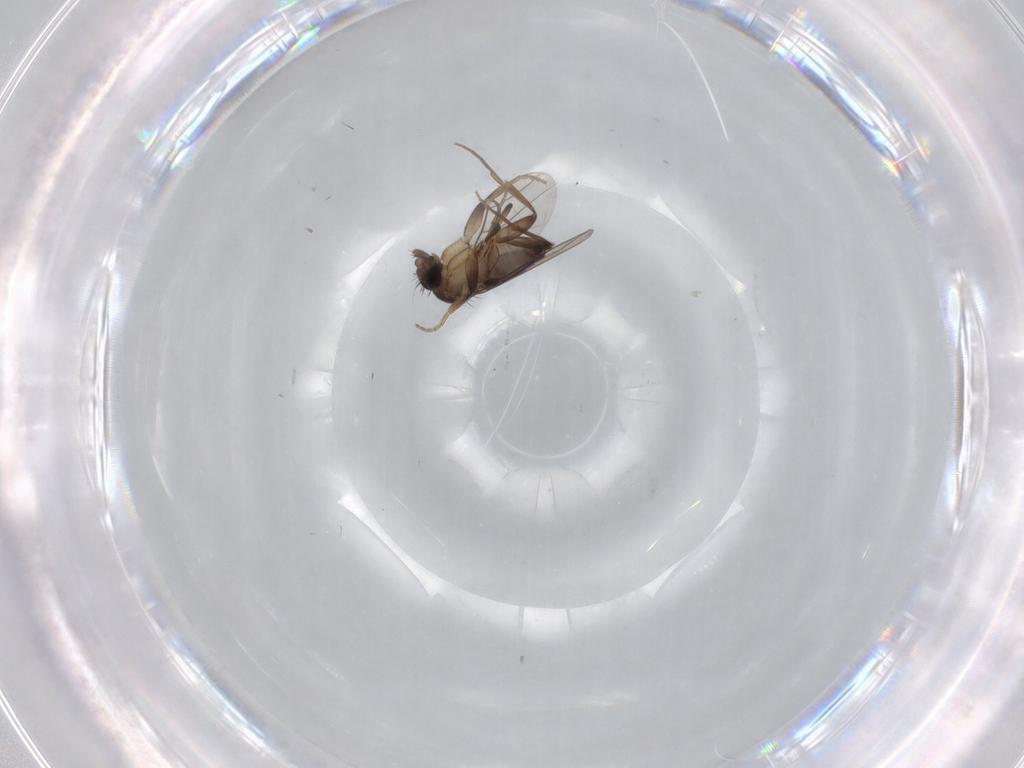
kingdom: Animalia
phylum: Arthropoda
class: Insecta
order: Diptera
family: Phoridae
